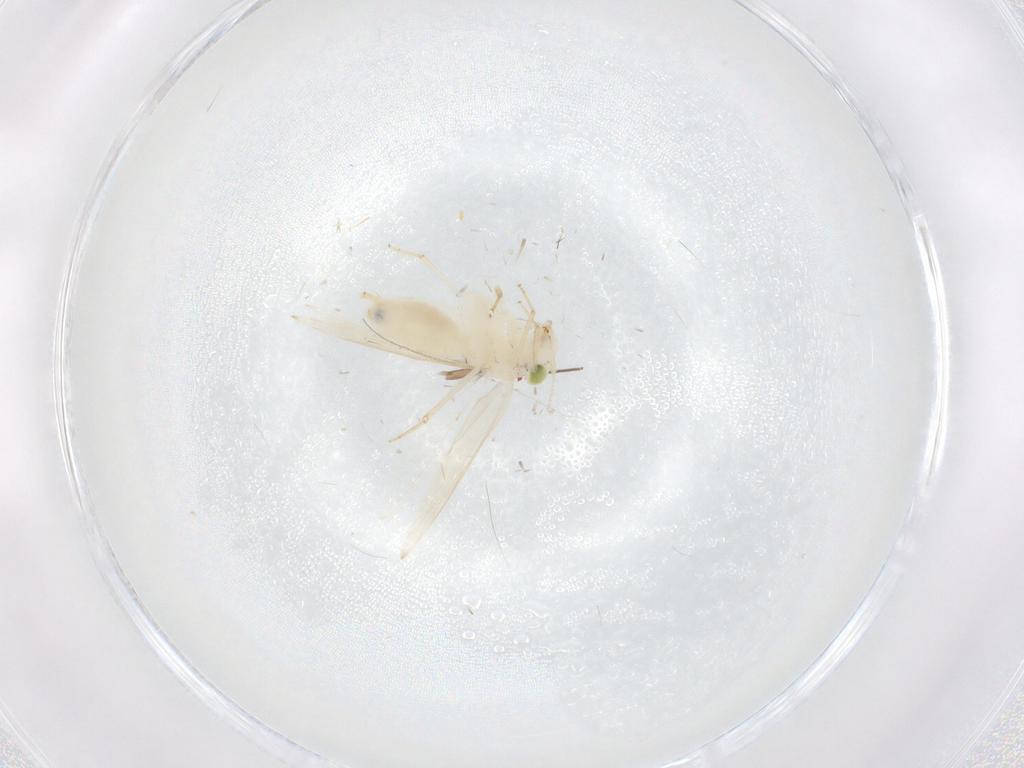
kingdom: Animalia
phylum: Arthropoda
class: Insecta
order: Psocodea
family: Lepidopsocidae
